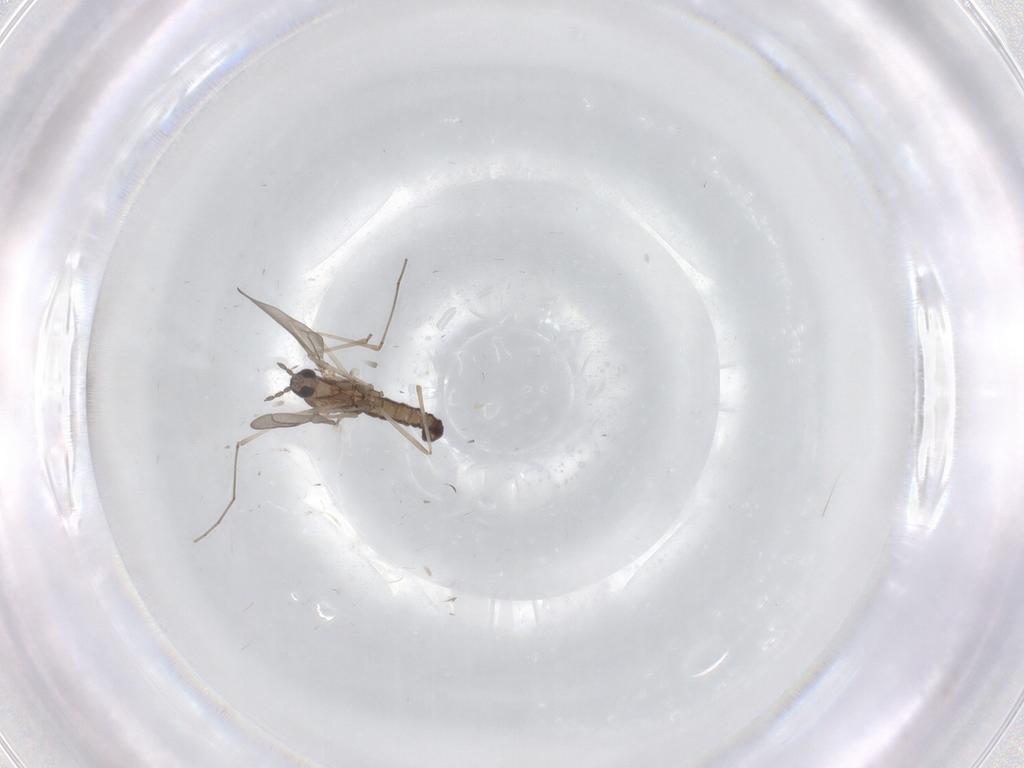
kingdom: Animalia
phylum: Arthropoda
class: Insecta
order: Diptera
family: Cecidomyiidae
